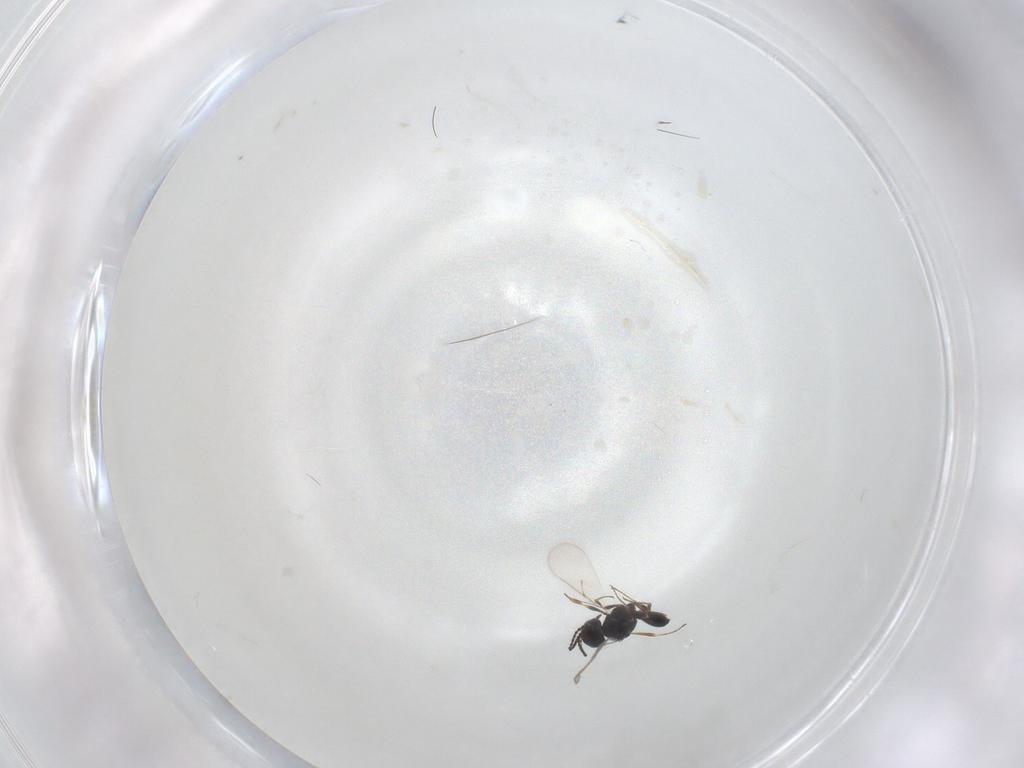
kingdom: Animalia
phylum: Arthropoda
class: Insecta
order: Hymenoptera
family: Scelionidae
